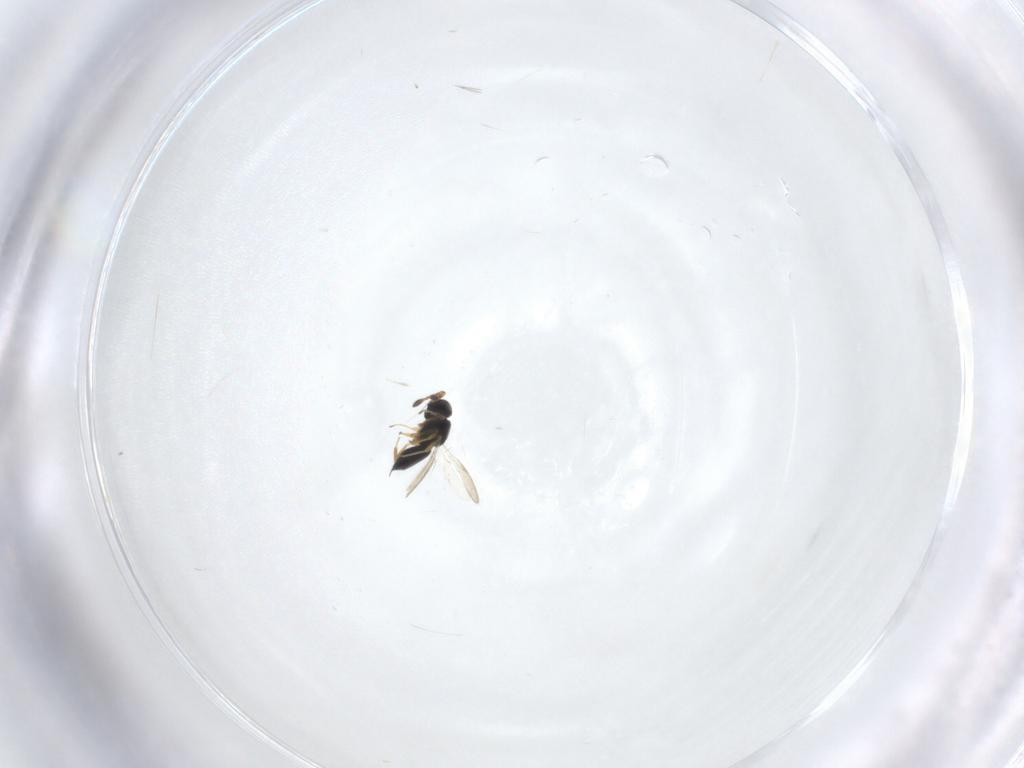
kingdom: Animalia
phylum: Arthropoda
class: Insecta
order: Hymenoptera
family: Scelionidae
